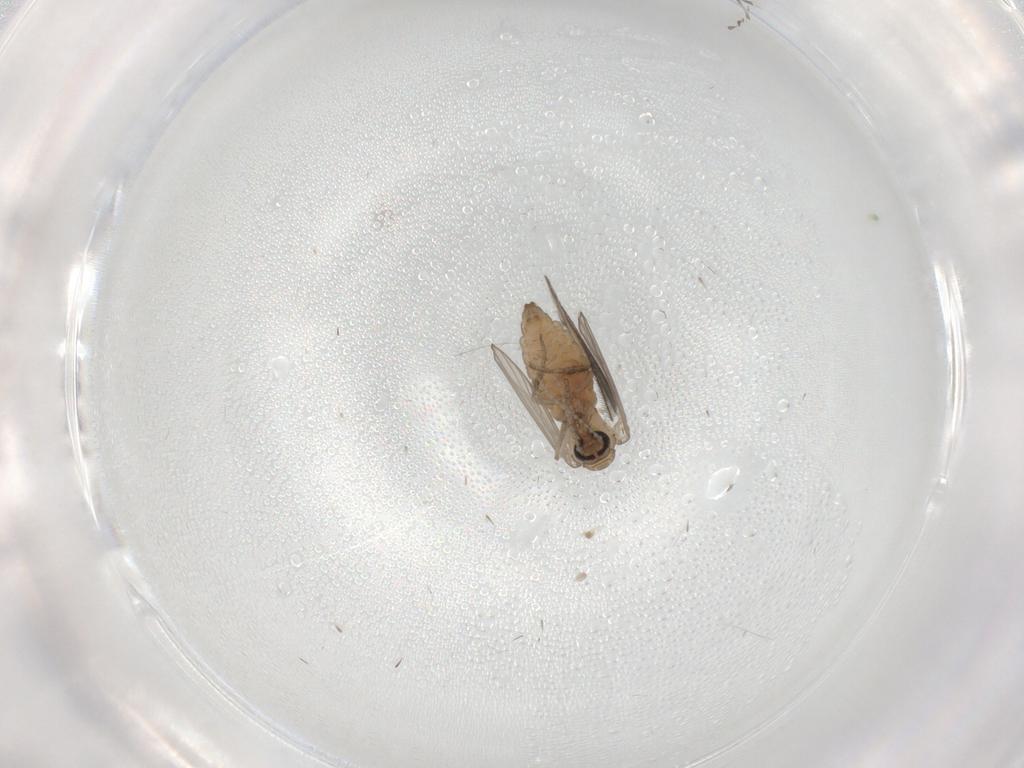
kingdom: Animalia
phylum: Arthropoda
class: Insecta
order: Diptera
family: Psychodidae
